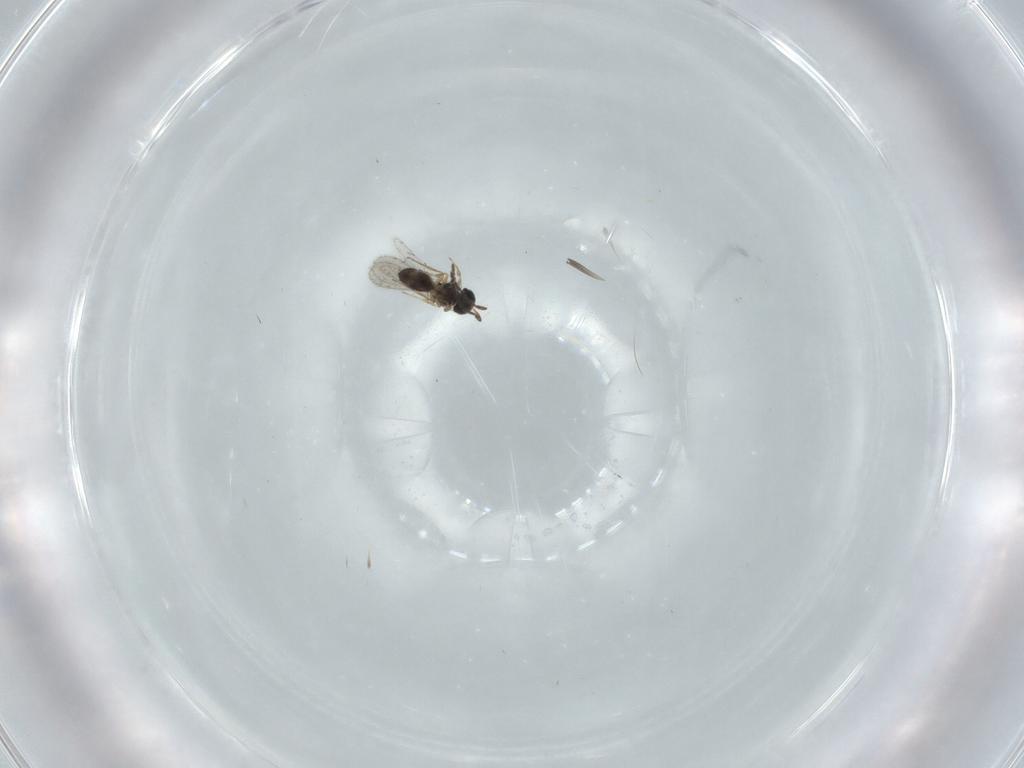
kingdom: Animalia
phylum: Arthropoda
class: Insecta
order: Hymenoptera
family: Scelionidae
